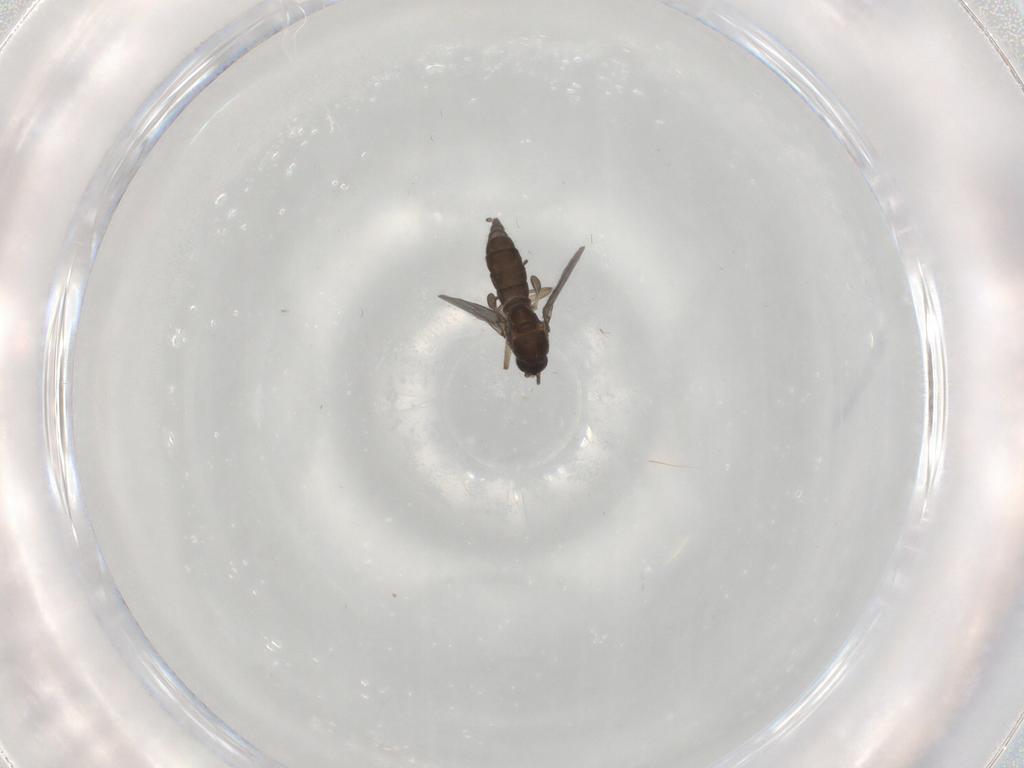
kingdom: Animalia
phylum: Arthropoda
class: Insecta
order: Diptera
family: Sciaridae
